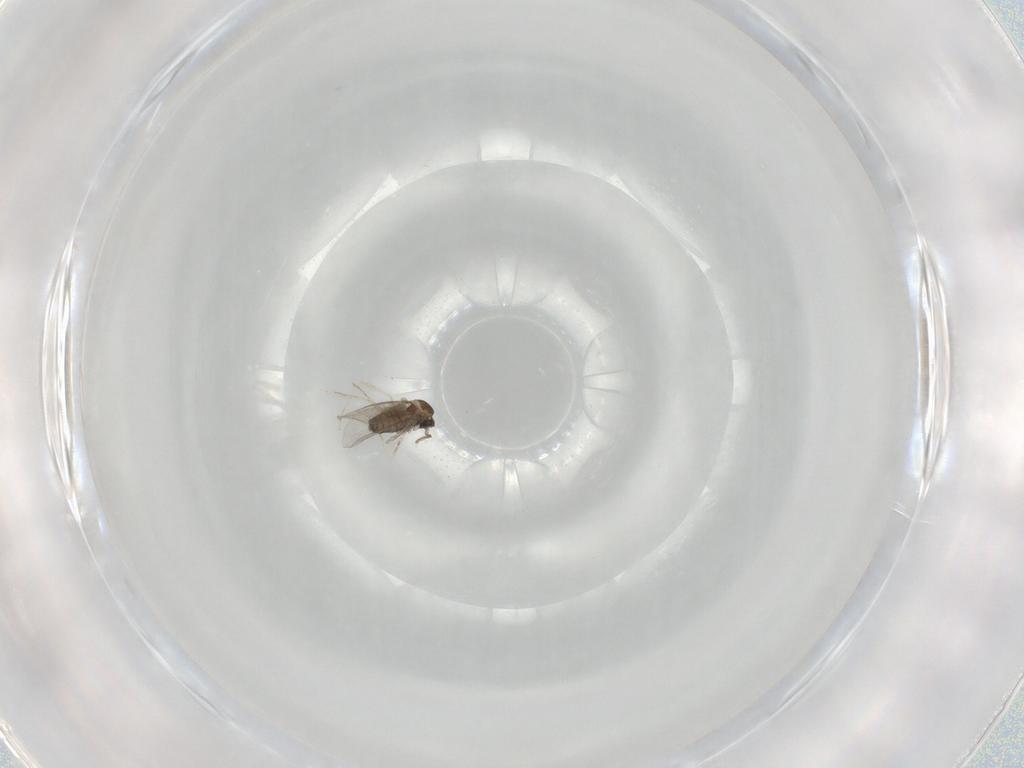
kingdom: Animalia
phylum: Arthropoda
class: Insecta
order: Diptera
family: Cecidomyiidae
